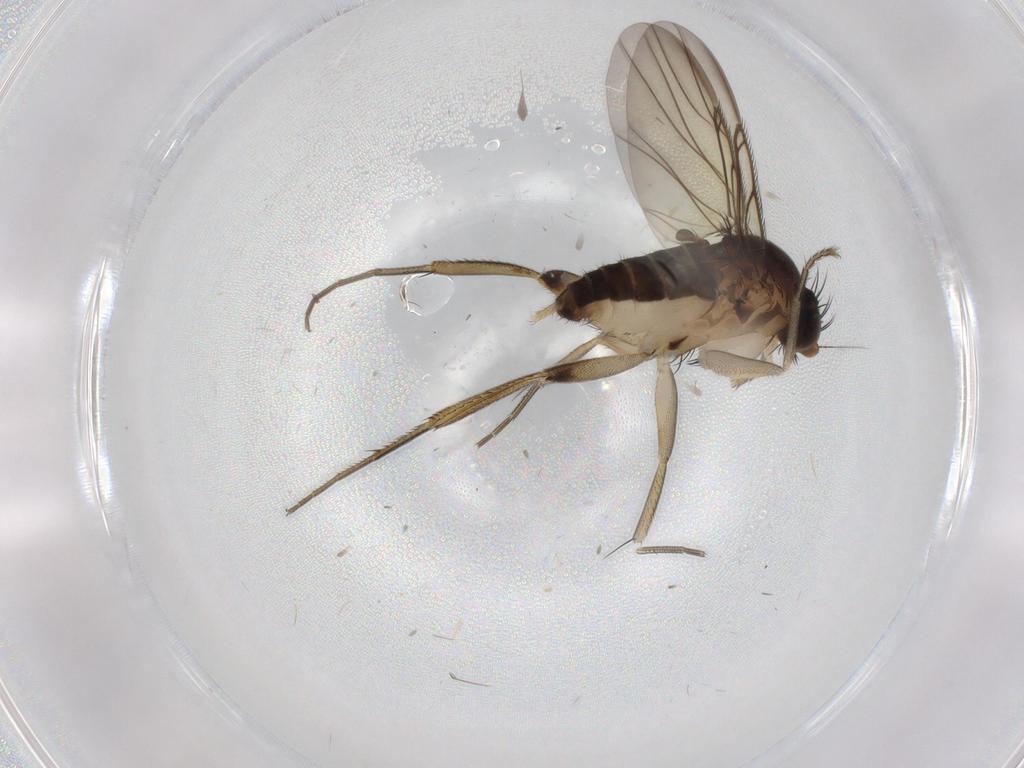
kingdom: Animalia
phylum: Arthropoda
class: Insecta
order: Diptera
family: Phoridae
